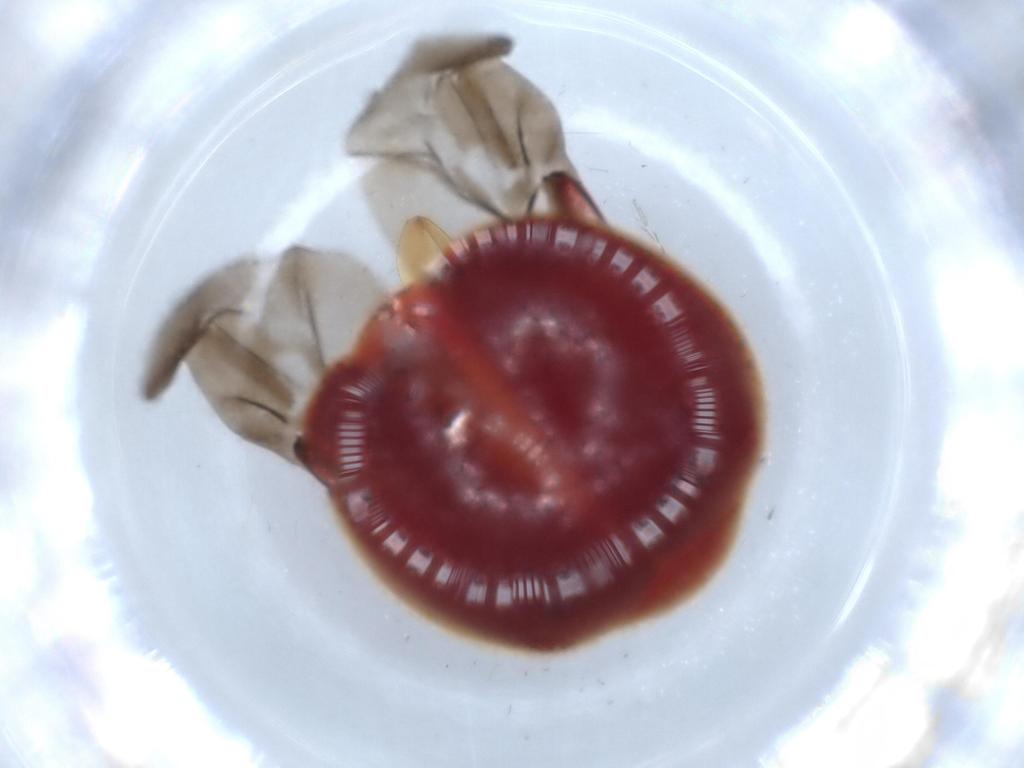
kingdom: Animalia
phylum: Arthropoda
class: Insecta
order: Coleoptera
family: Coccinellidae
